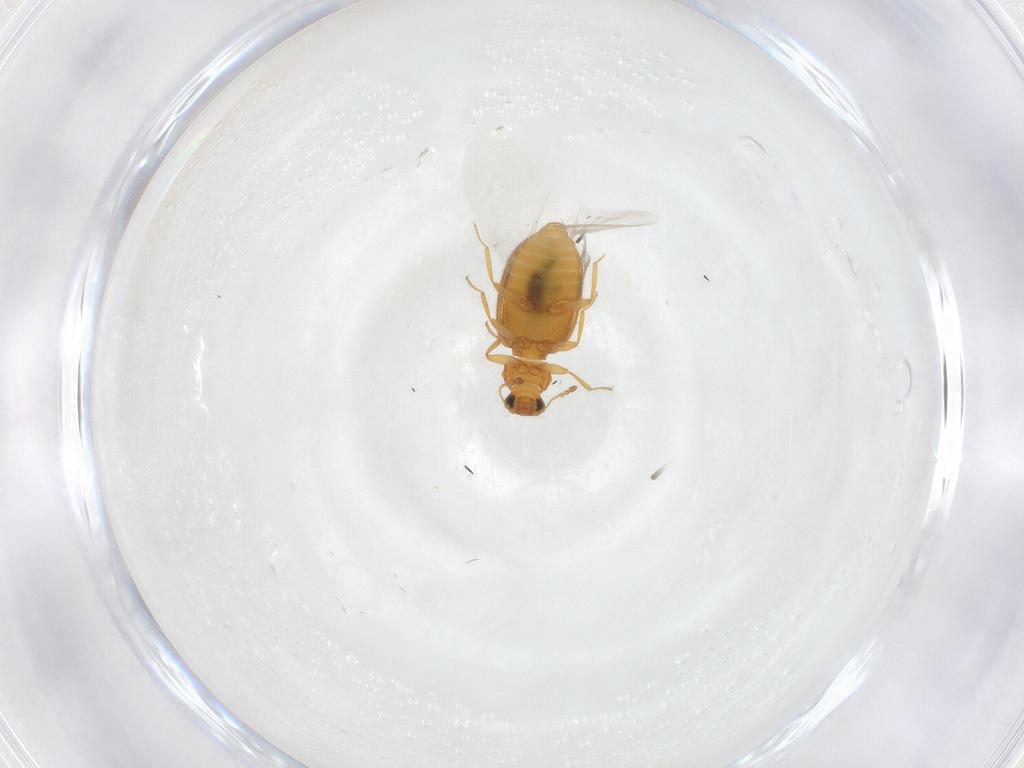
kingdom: Animalia
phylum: Arthropoda
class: Insecta
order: Coleoptera
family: Latridiidae
